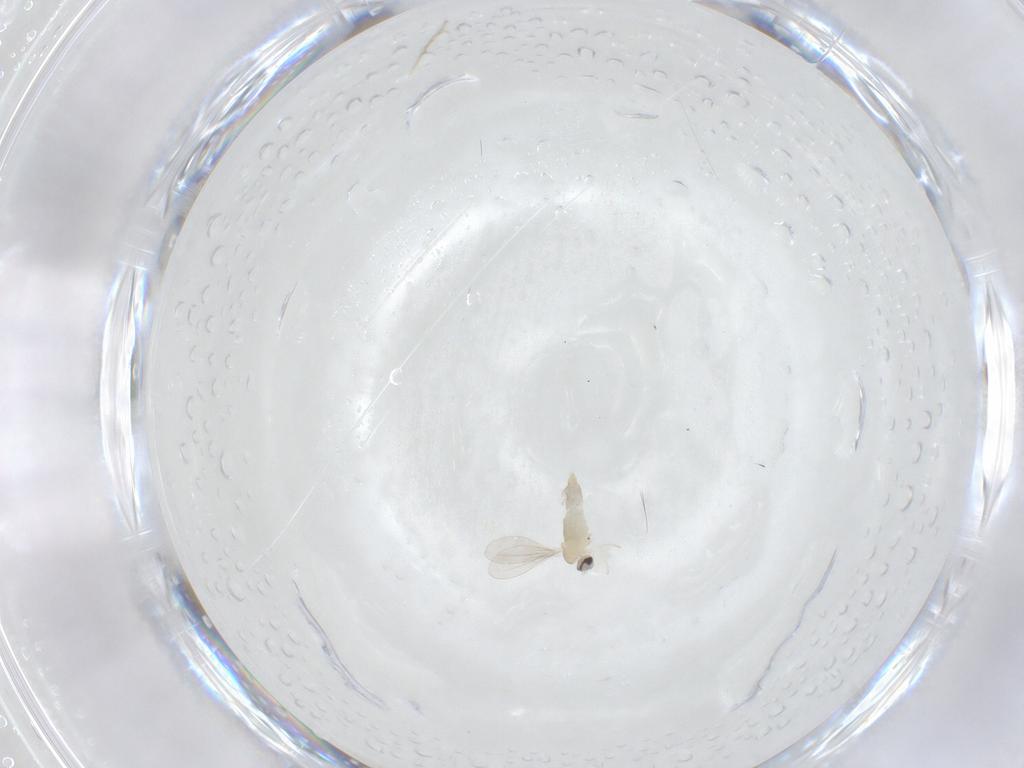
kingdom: Animalia
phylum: Arthropoda
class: Insecta
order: Diptera
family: Cecidomyiidae
